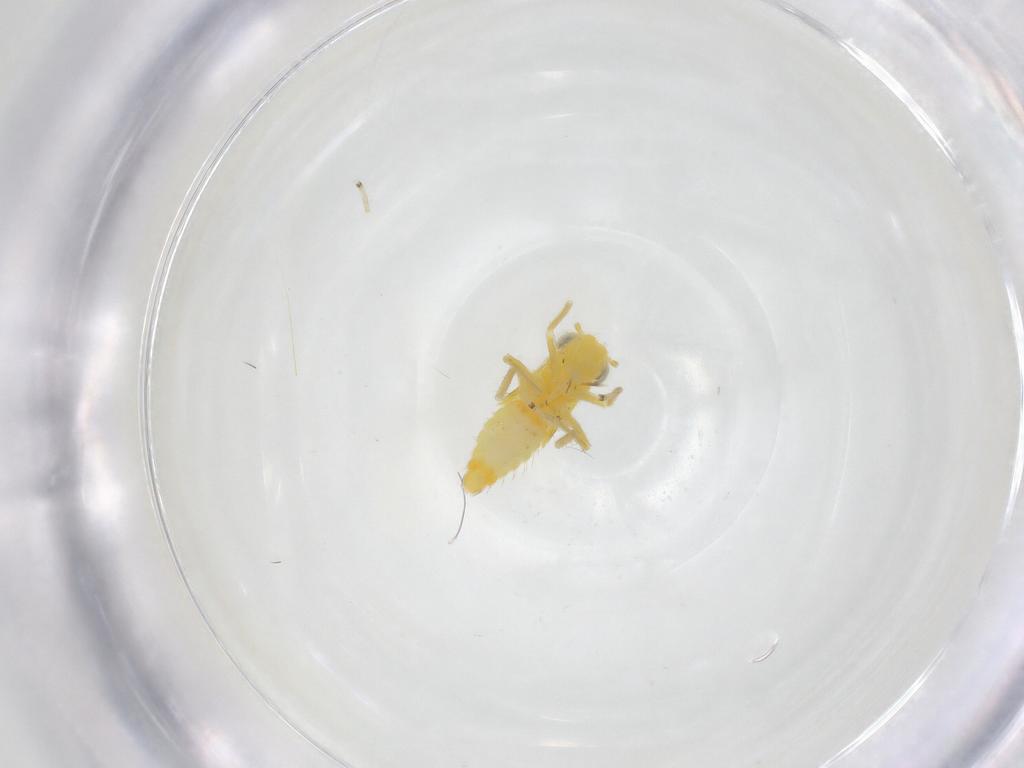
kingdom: Animalia
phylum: Arthropoda
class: Insecta
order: Hemiptera
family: Cicadellidae
